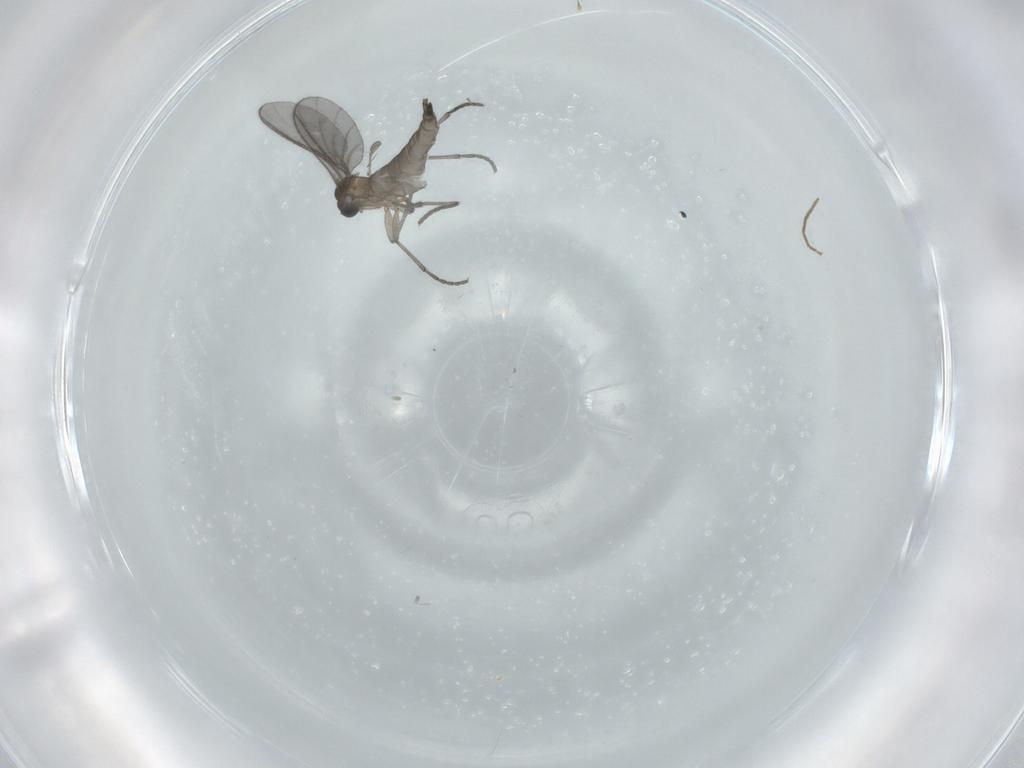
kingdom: Animalia
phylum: Arthropoda
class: Insecta
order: Diptera
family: Sciaridae
